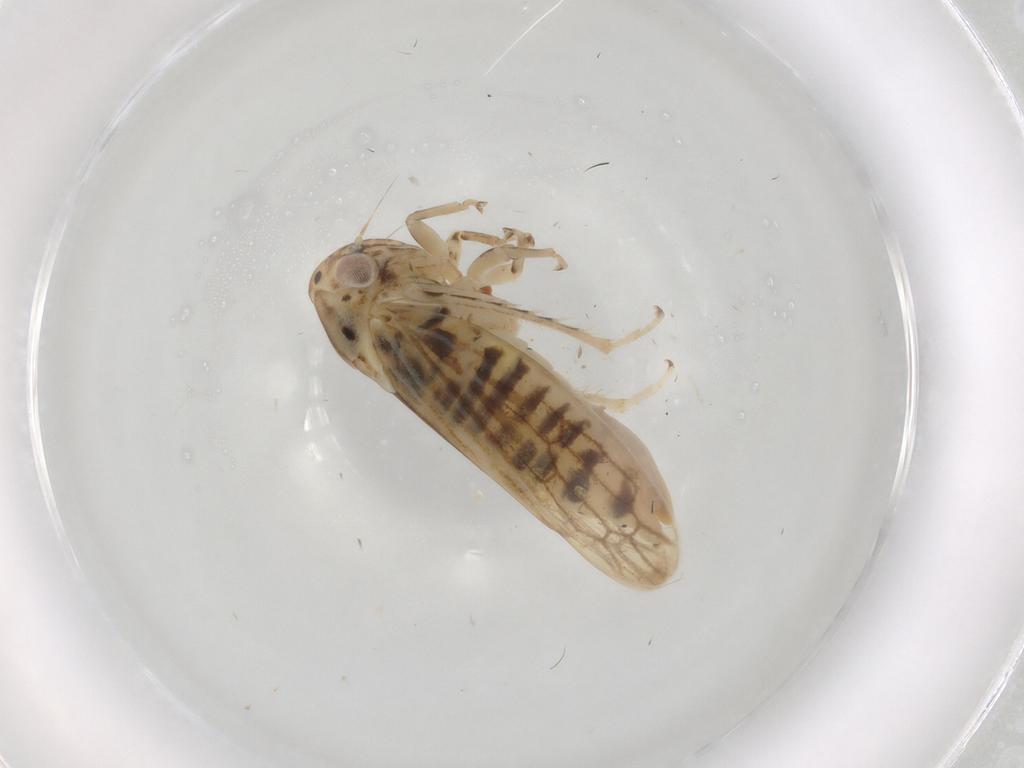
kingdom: Animalia
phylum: Arthropoda
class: Insecta
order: Hemiptera
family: Cicadellidae
